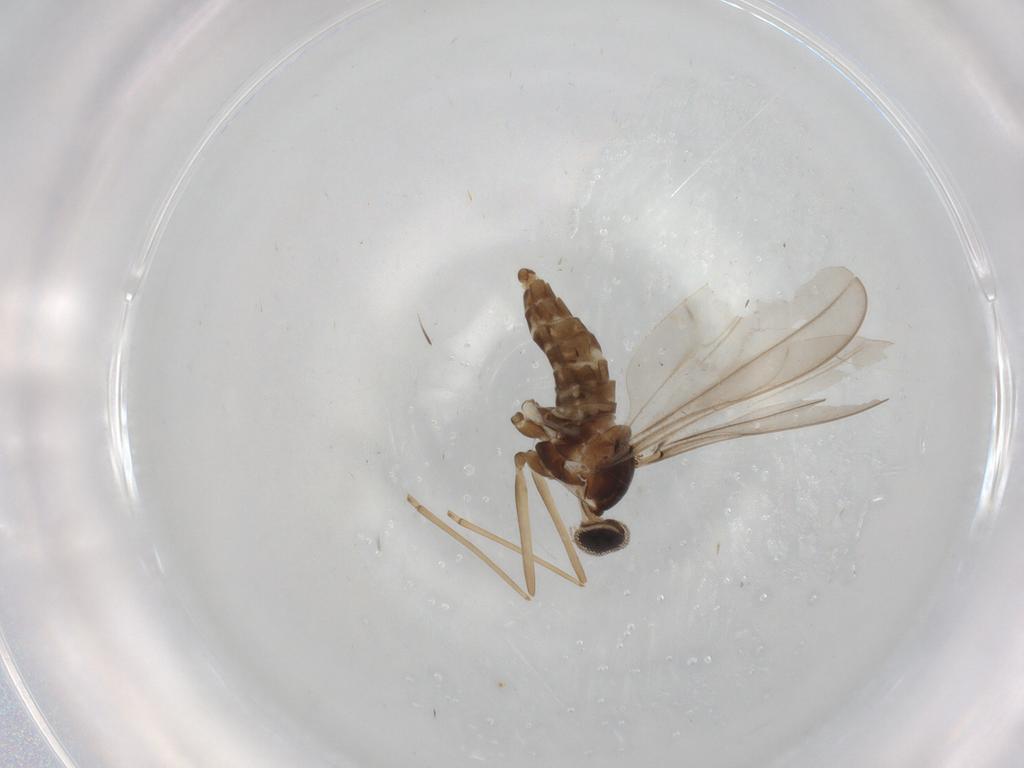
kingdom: Animalia
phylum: Arthropoda
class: Insecta
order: Diptera
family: Cecidomyiidae
